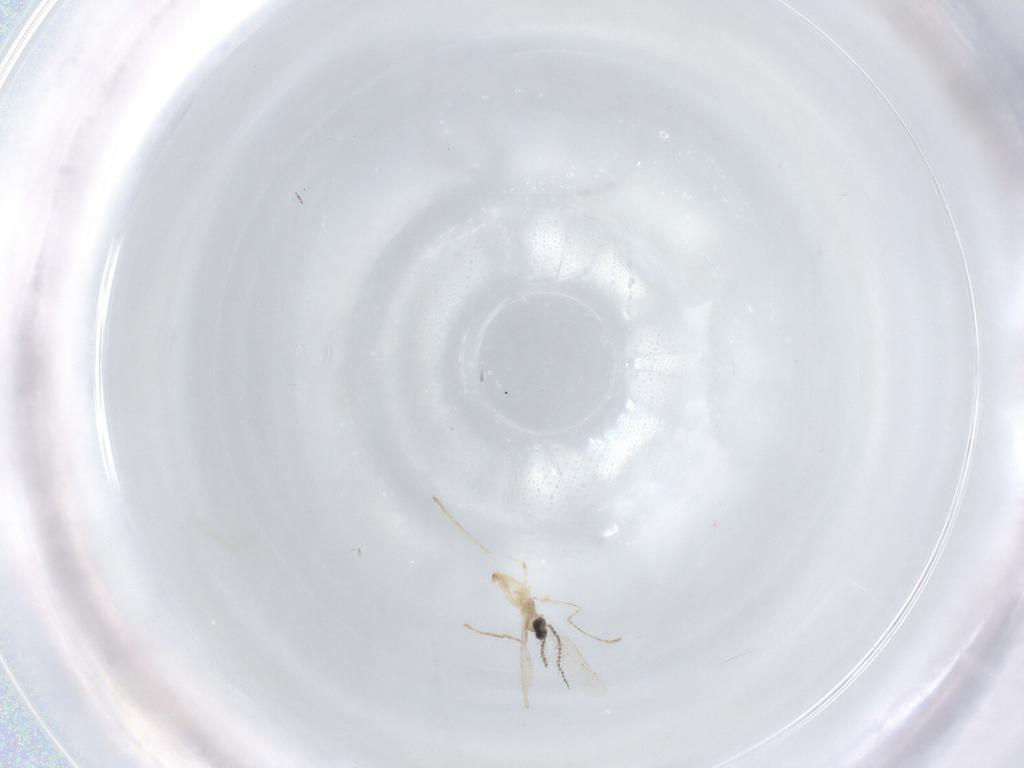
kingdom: Animalia
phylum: Arthropoda
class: Insecta
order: Diptera
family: Cecidomyiidae
